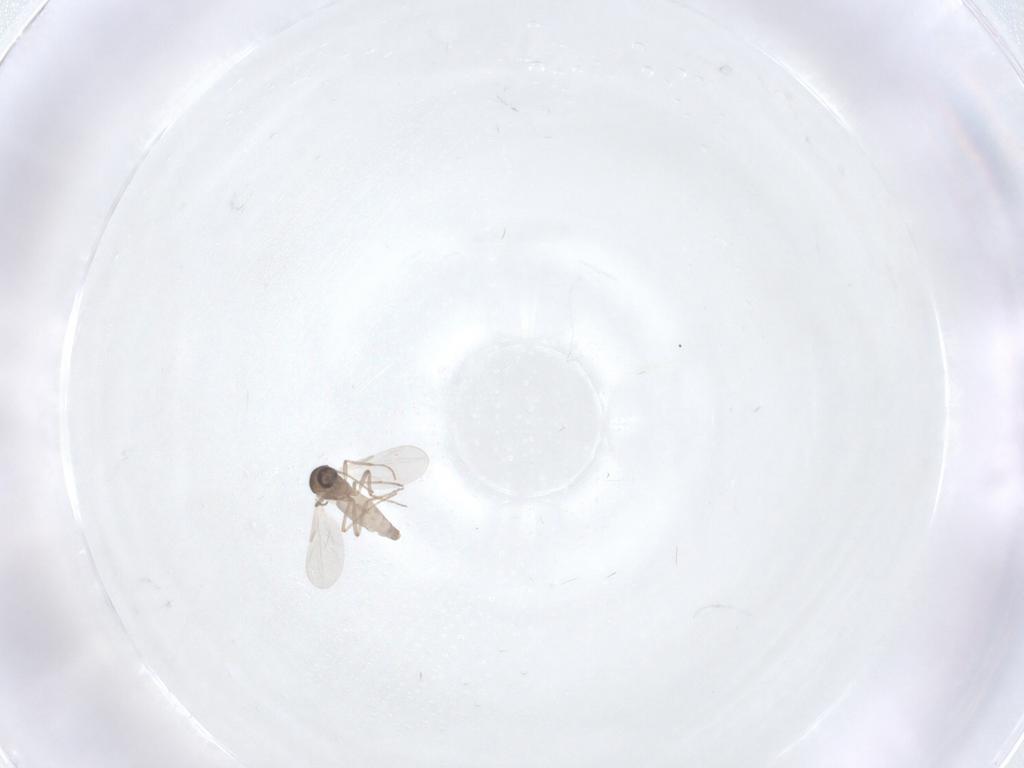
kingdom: Animalia
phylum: Arthropoda
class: Insecta
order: Diptera
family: Ceratopogonidae
